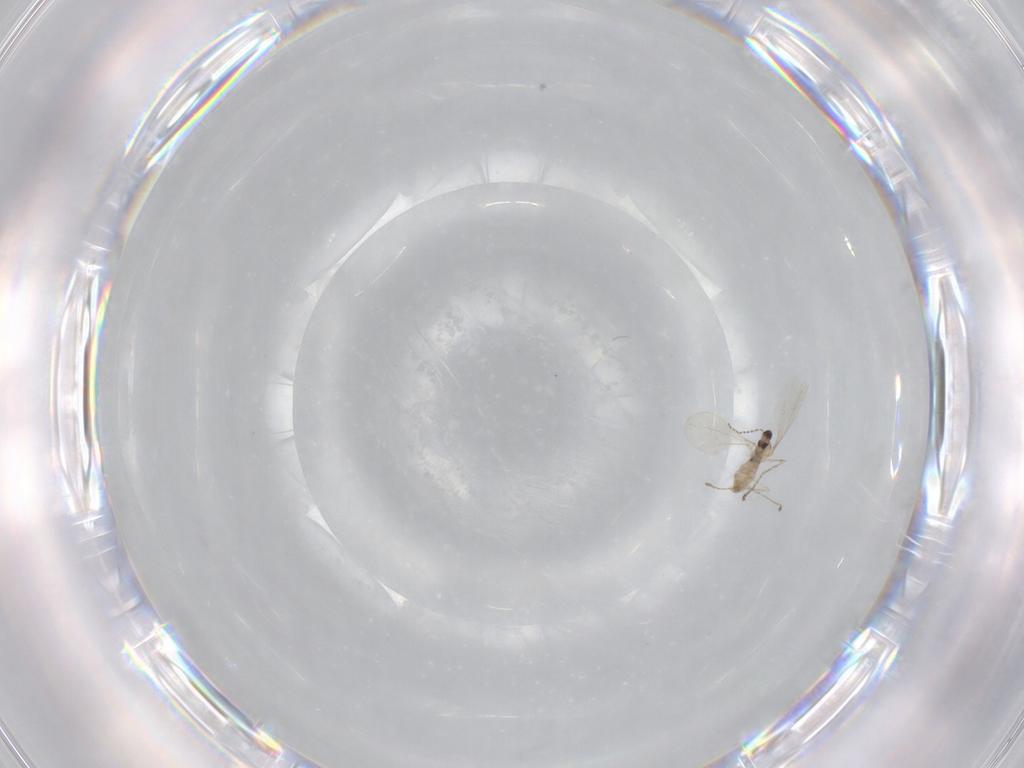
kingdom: Animalia
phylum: Arthropoda
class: Insecta
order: Diptera
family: Cecidomyiidae
